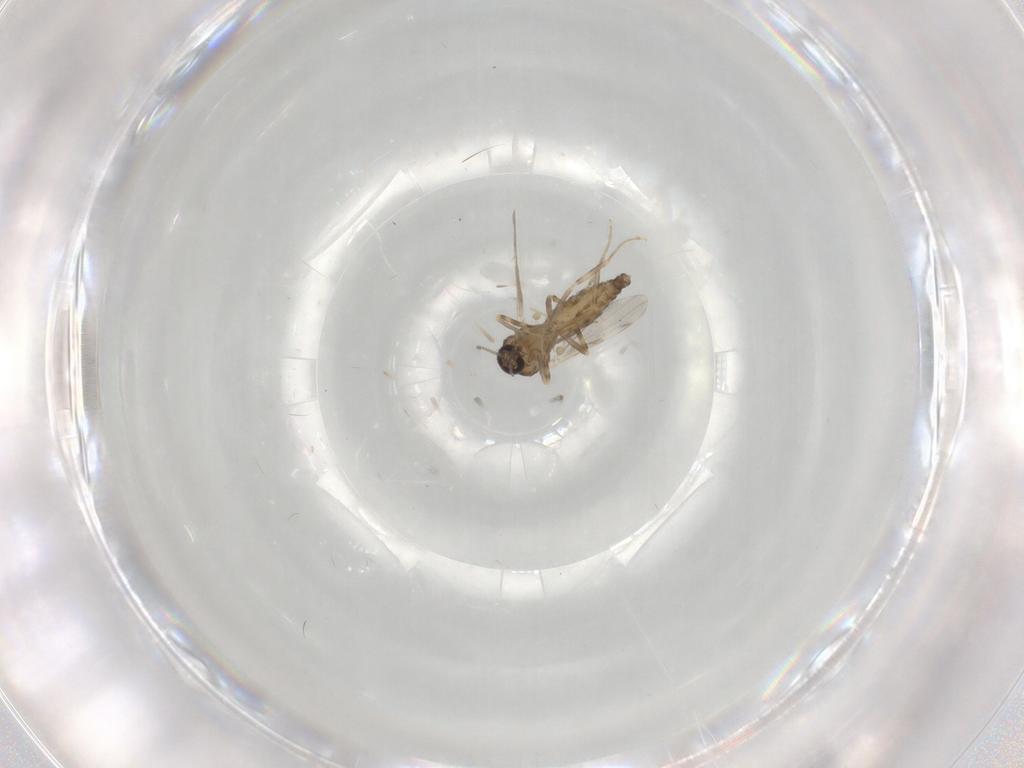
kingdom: Animalia
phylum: Arthropoda
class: Insecta
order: Diptera
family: Ceratopogonidae
